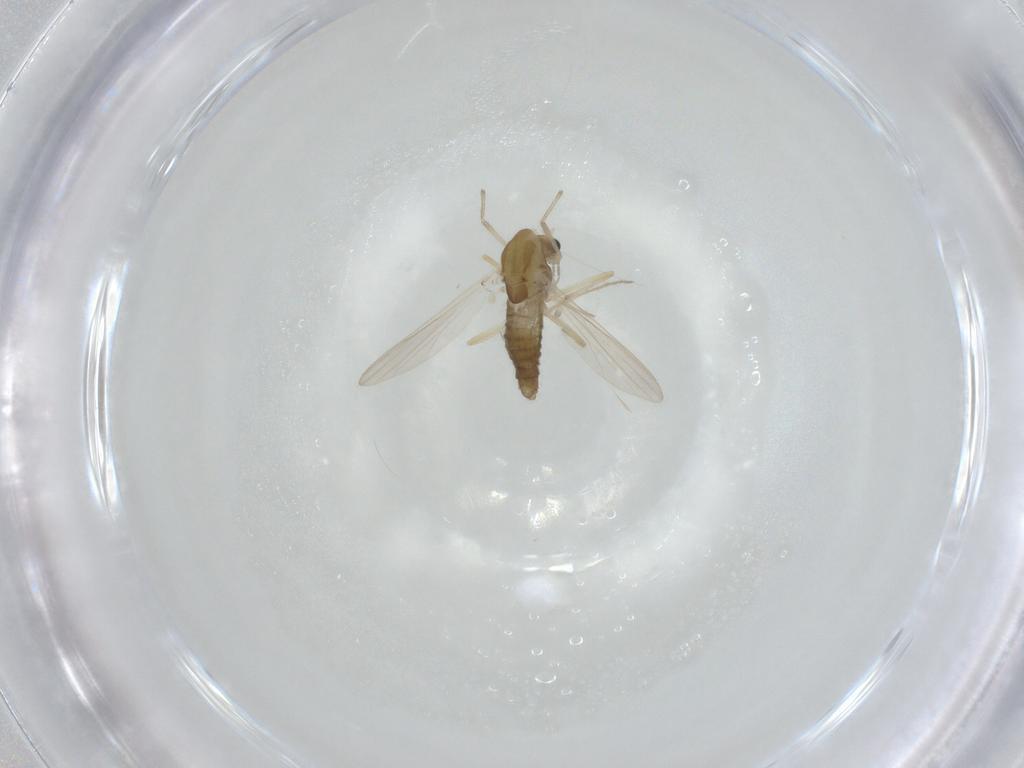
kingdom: Animalia
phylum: Arthropoda
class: Insecta
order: Diptera
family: Chironomidae
